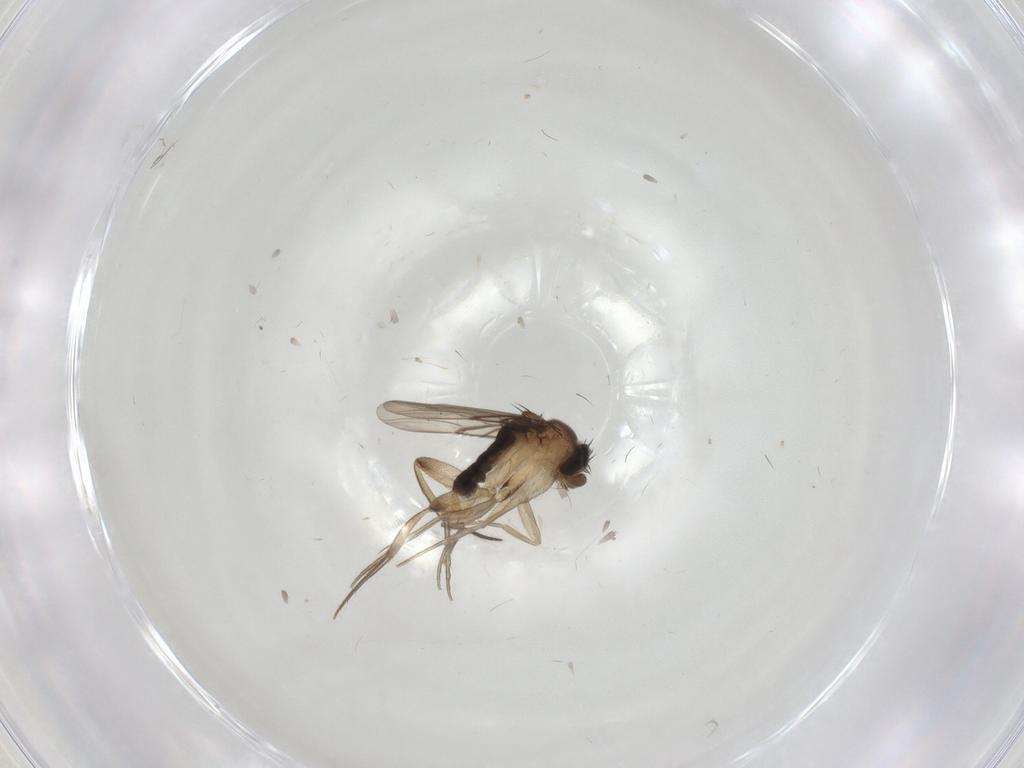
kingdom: Animalia
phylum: Arthropoda
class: Insecta
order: Diptera
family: Phoridae
